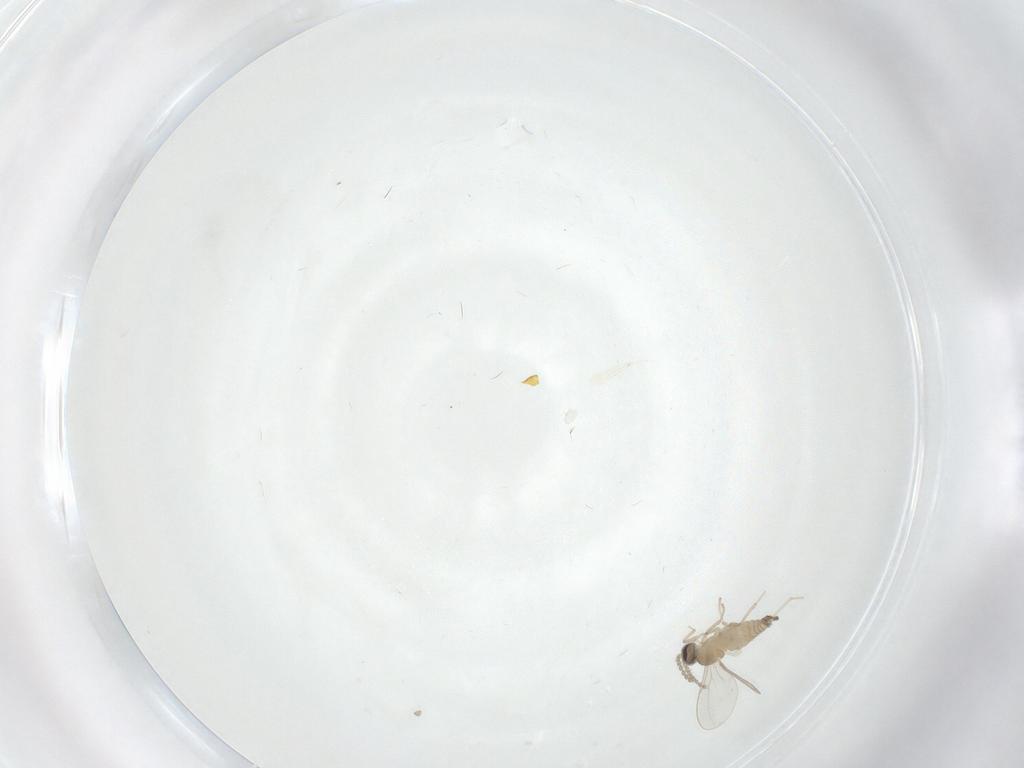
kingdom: Animalia
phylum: Arthropoda
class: Insecta
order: Diptera
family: Cecidomyiidae
